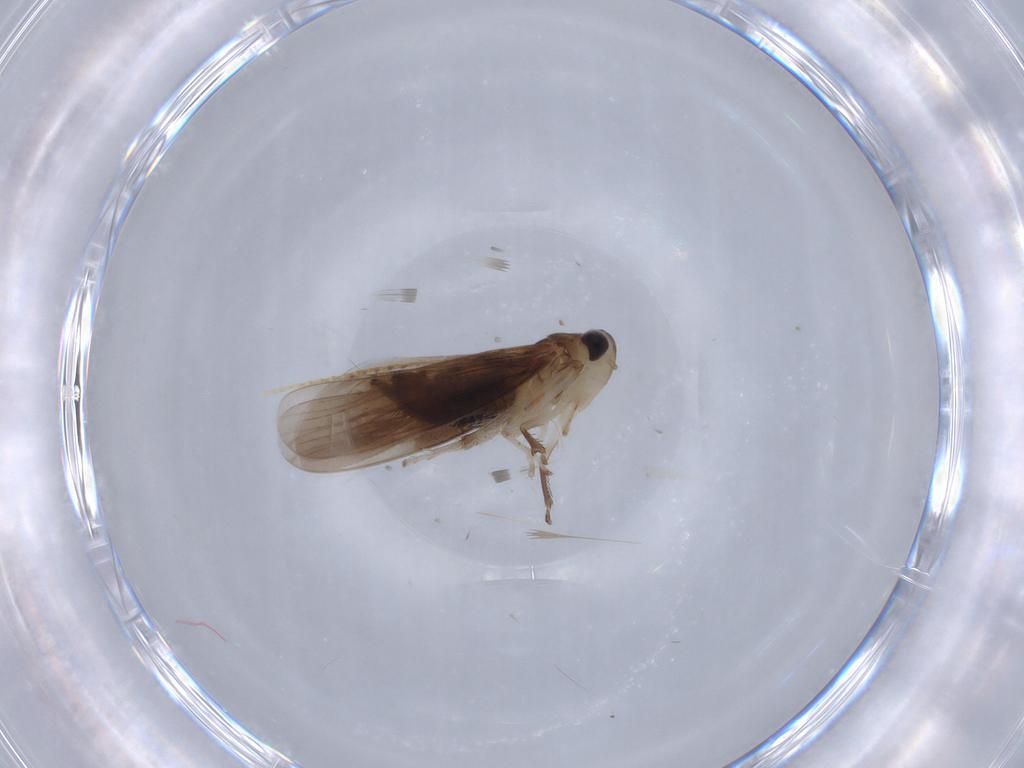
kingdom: Animalia
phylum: Arthropoda
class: Insecta
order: Hemiptera
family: Cicadellidae
